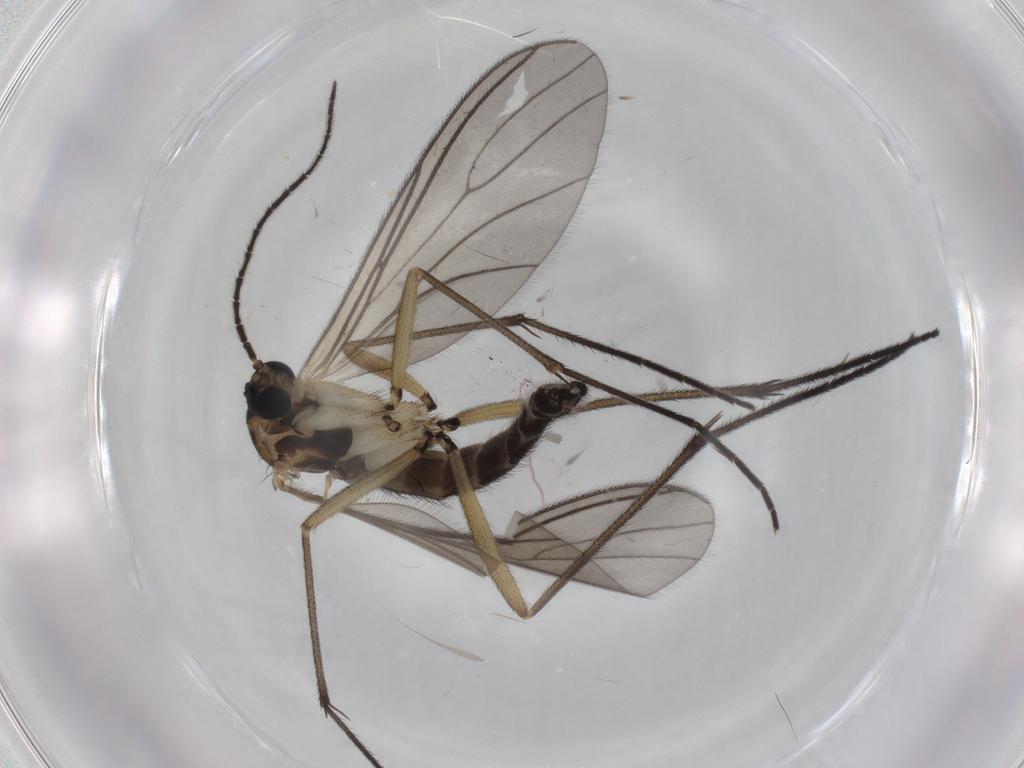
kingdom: Animalia
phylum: Arthropoda
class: Insecta
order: Diptera
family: Sciaridae
